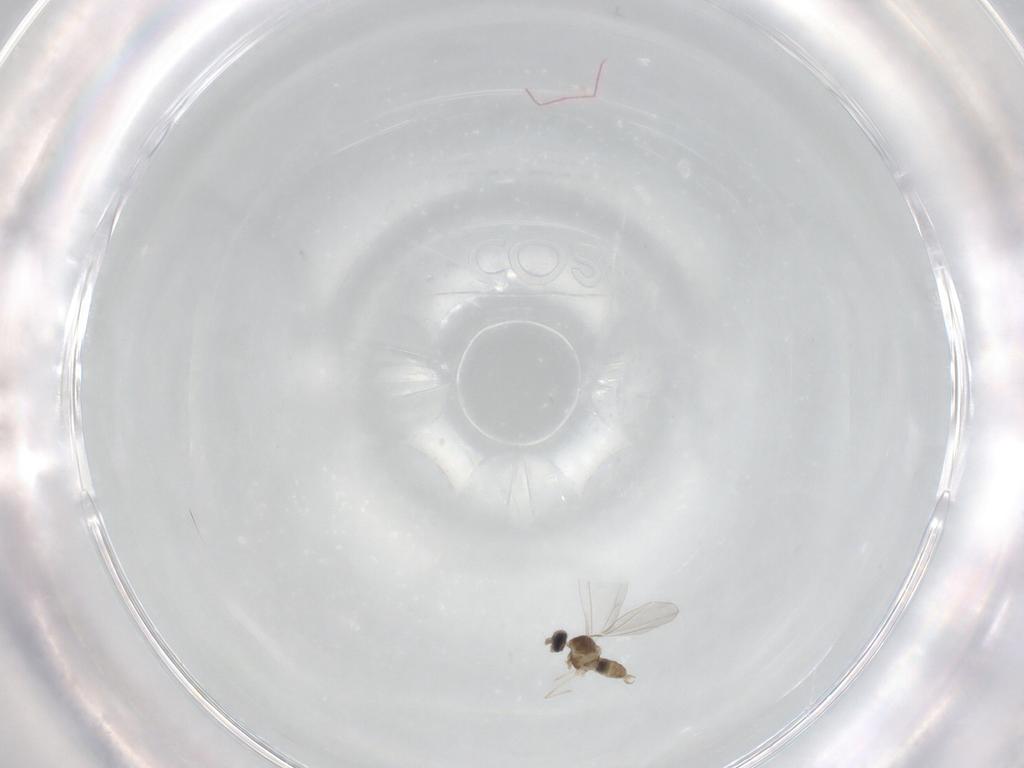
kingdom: Animalia
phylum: Arthropoda
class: Insecta
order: Diptera
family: Cecidomyiidae
